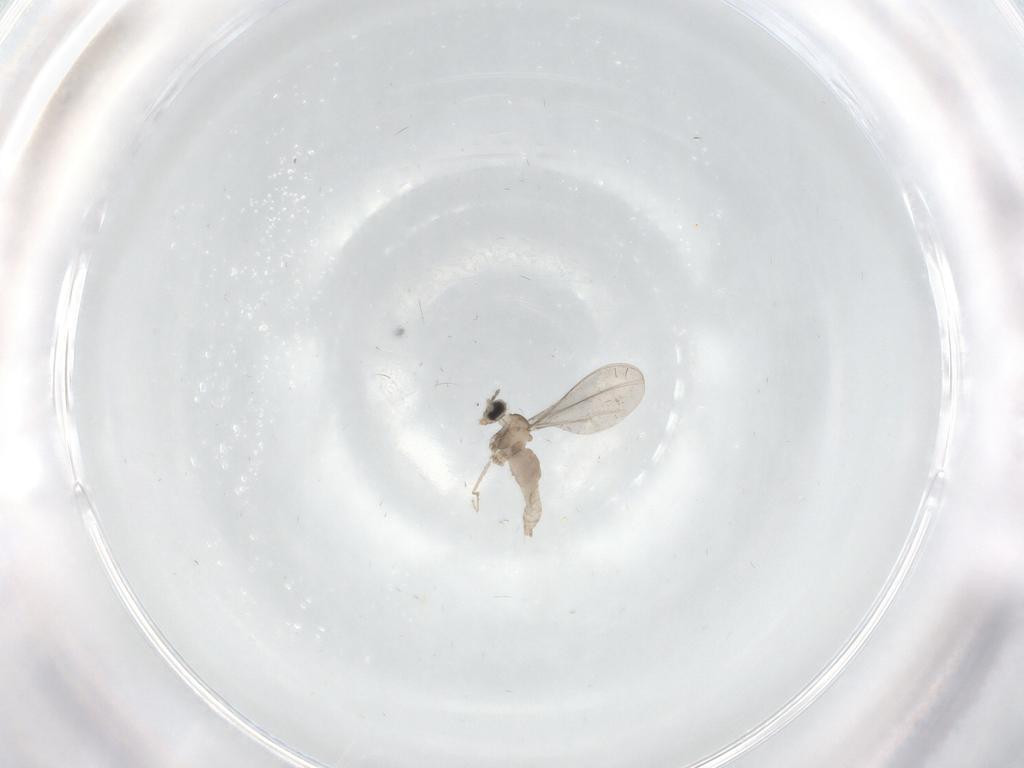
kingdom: Animalia
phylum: Arthropoda
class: Insecta
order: Diptera
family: Cecidomyiidae
